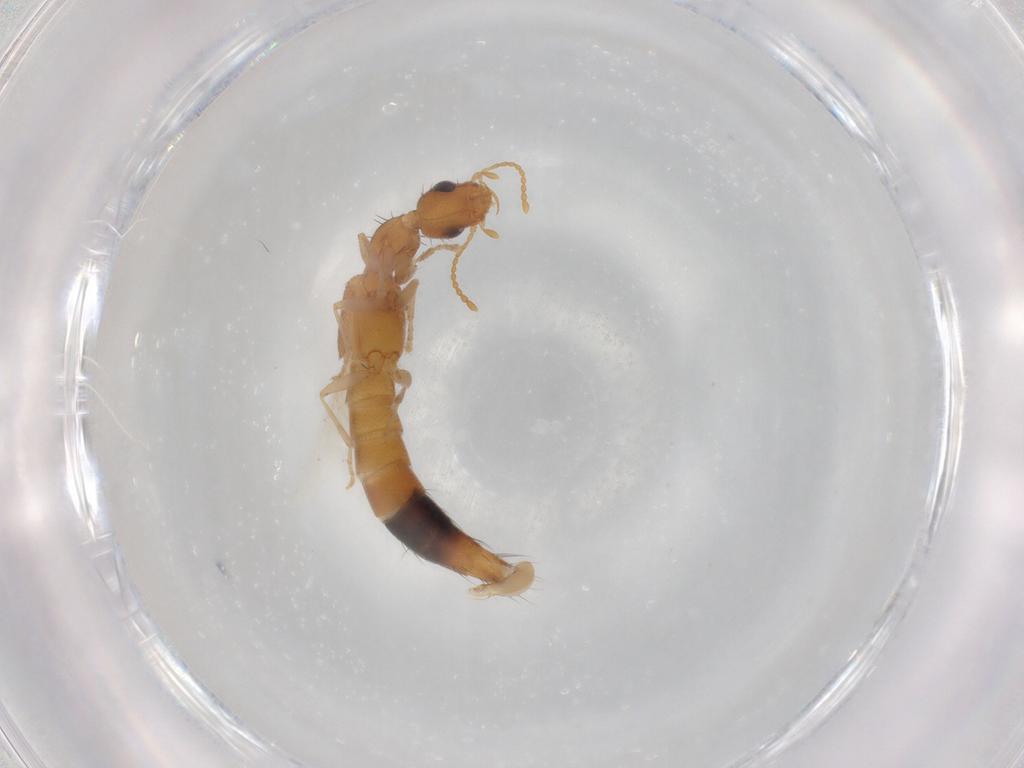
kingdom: Animalia
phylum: Arthropoda
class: Insecta
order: Coleoptera
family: Staphylinidae
